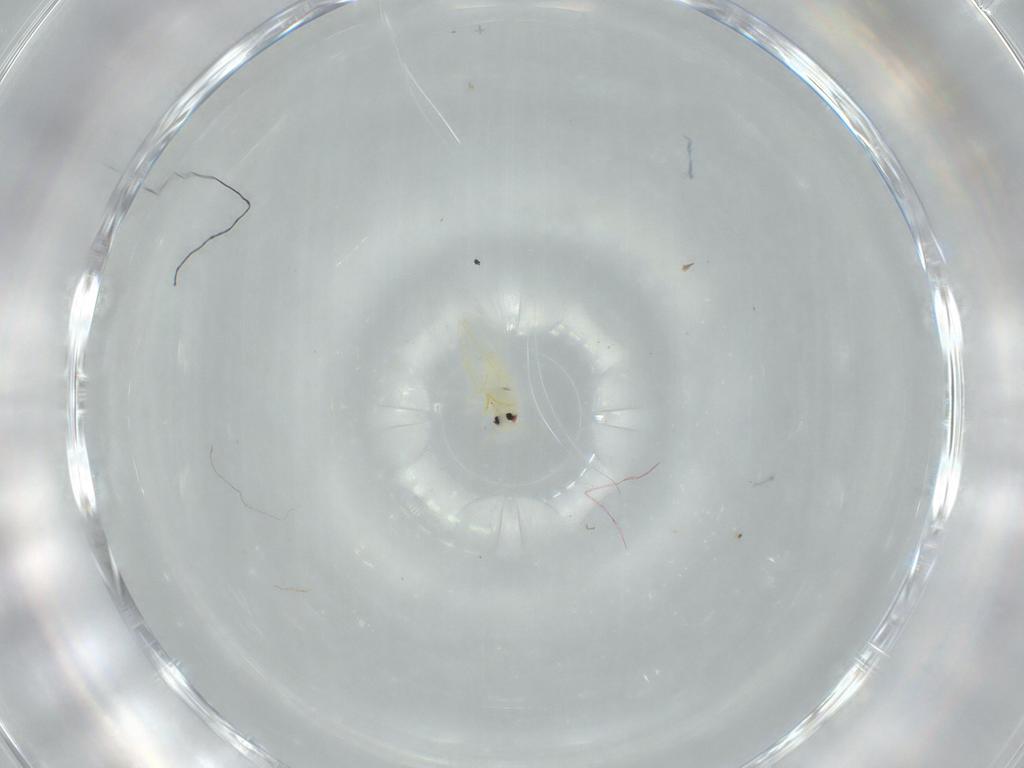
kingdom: Animalia
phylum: Arthropoda
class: Insecta
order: Hemiptera
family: Aleyrodidae
